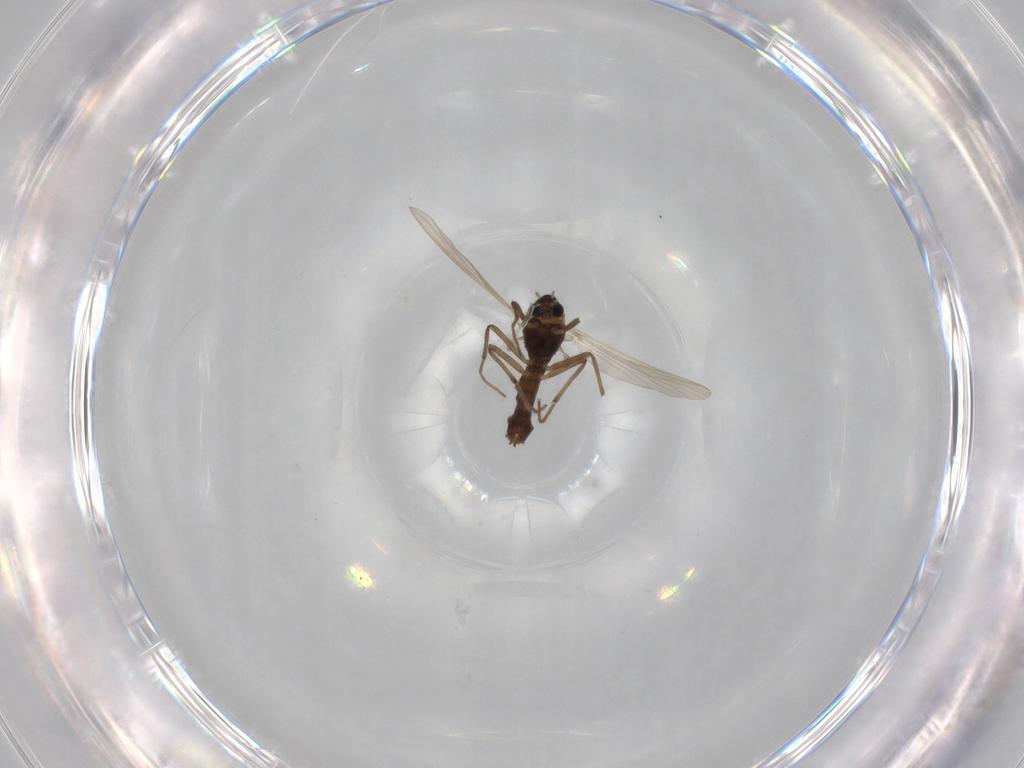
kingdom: Animalia
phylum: Arthropoda
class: Insecta
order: Diptera
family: Chironomidae
